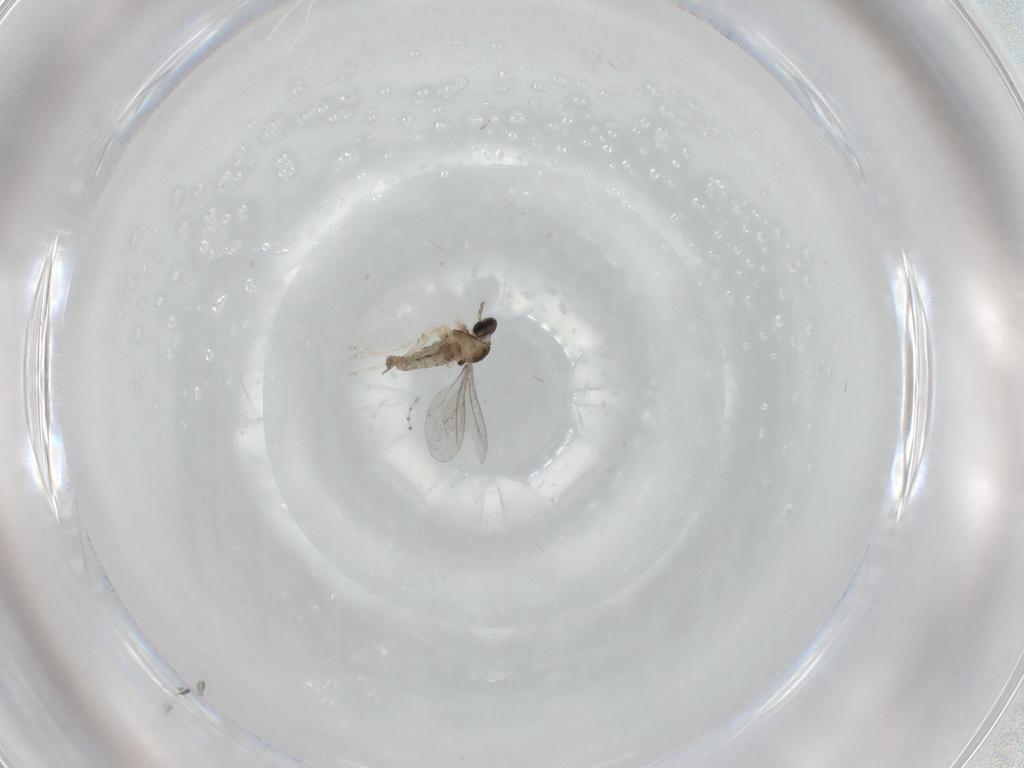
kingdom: Animalia
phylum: Arthropoda
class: Insecta
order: Diptera
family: Cecidomyiidae
